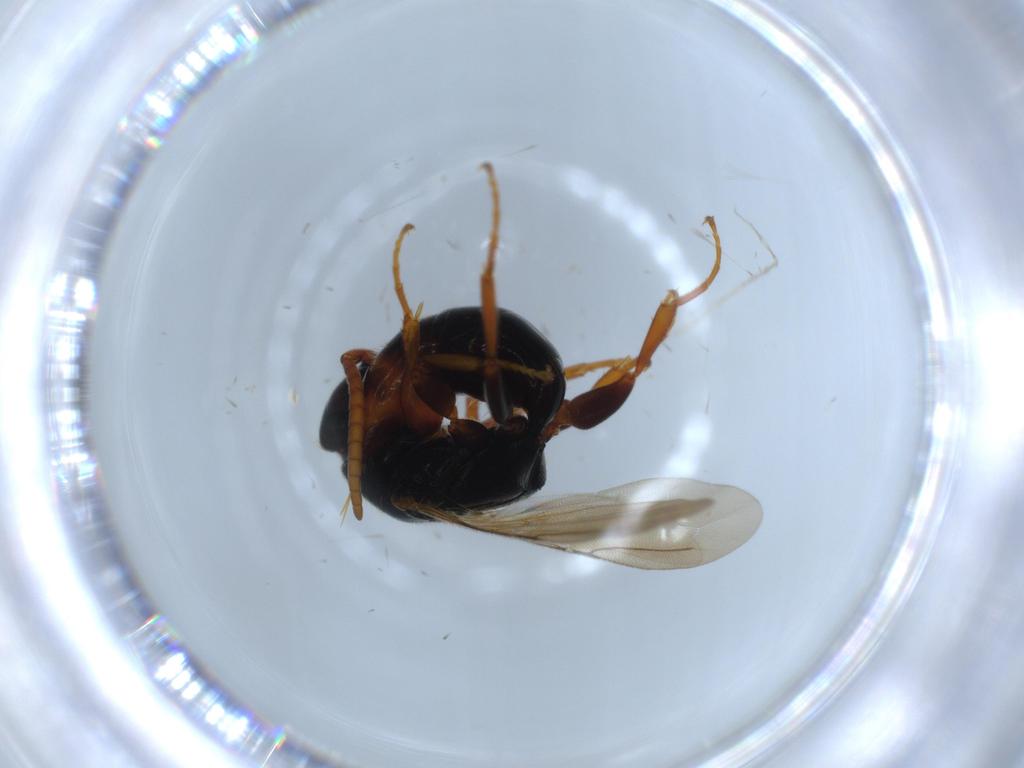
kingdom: Animalia
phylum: Arthropoda
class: Insecta
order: Hymenoptera
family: Bethylidae
